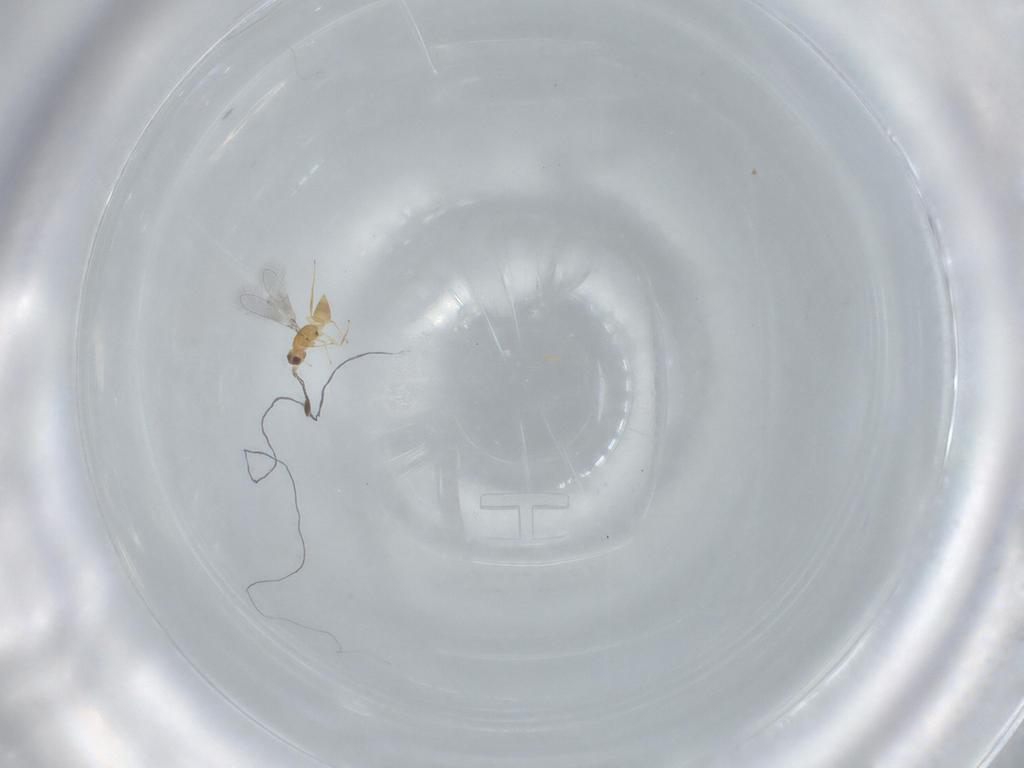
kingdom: Animalia
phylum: Arthropoda
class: Insecta
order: Hymenoptera
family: Mymaridae
